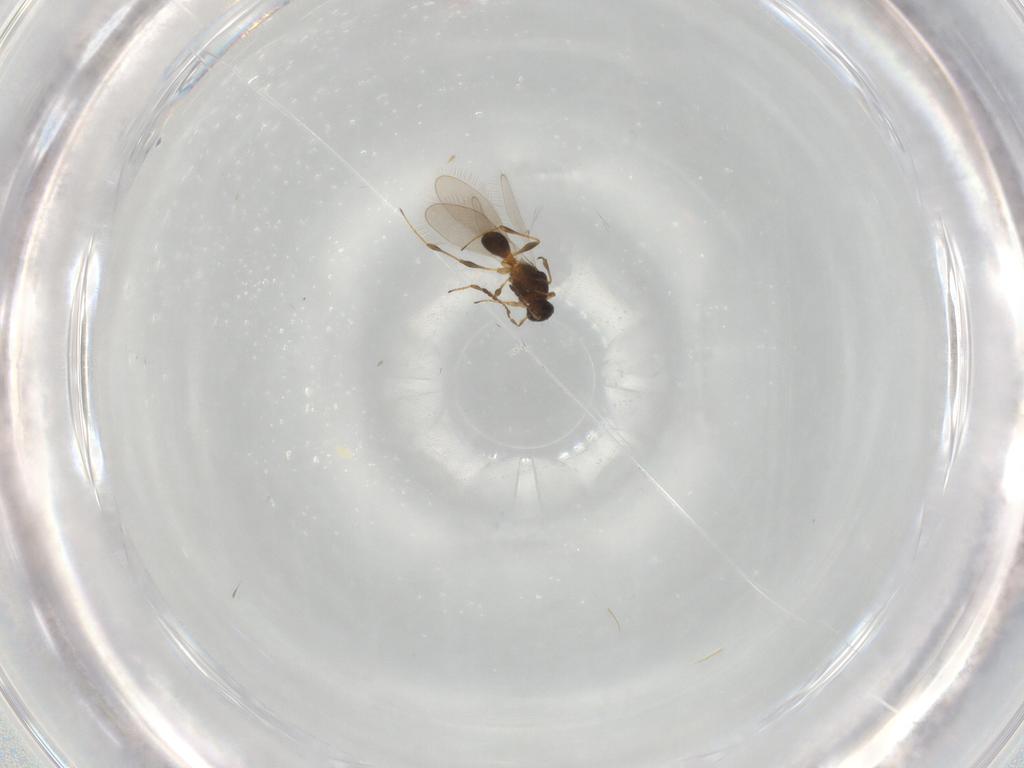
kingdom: Animalia
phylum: Arthropoda
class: Insecta
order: Hymenoptera
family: Platygastridae
